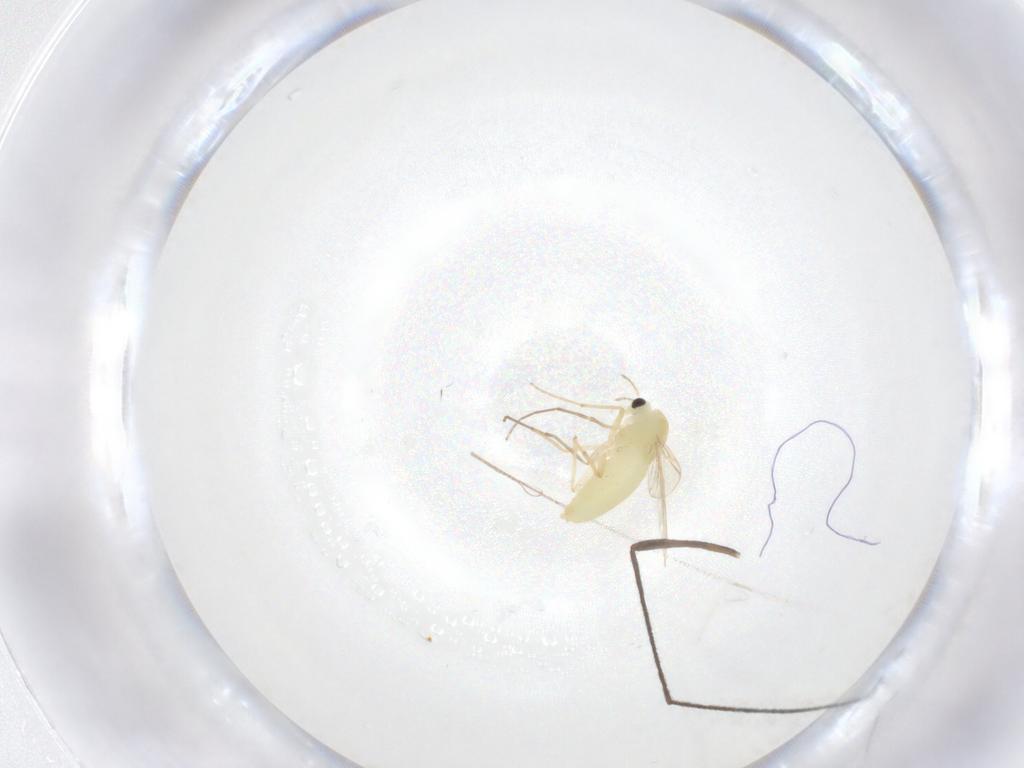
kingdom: Animalia
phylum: Arthropoda
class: Insecta
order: Diptera
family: Chironomidae
